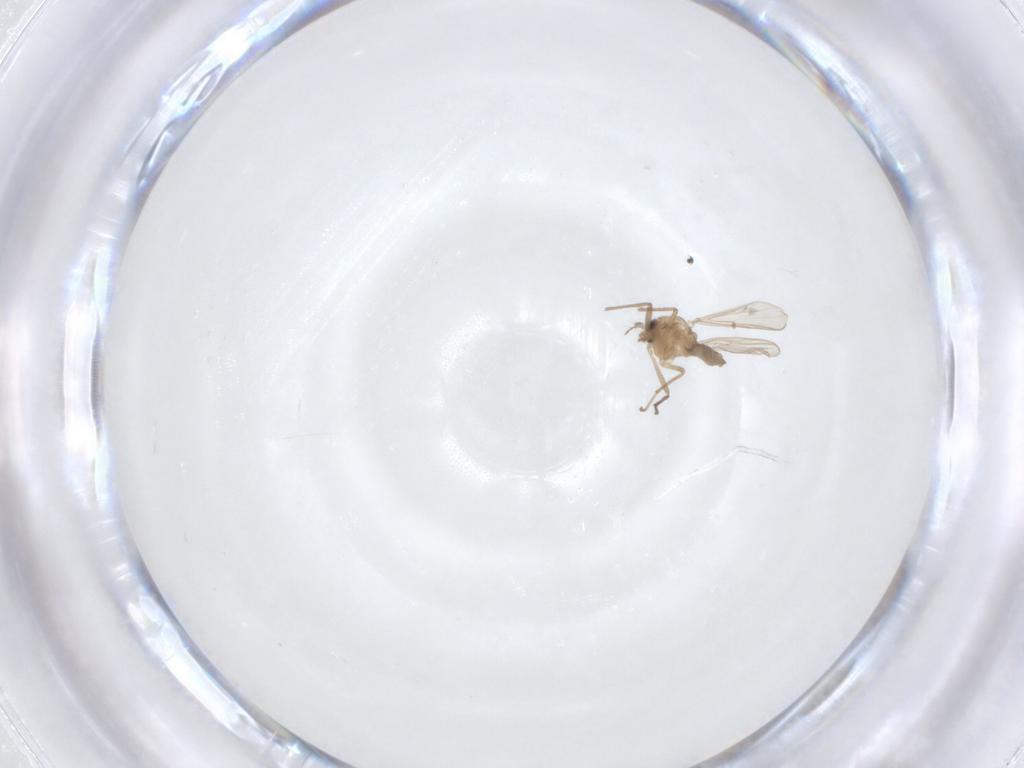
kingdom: Animalia
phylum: Arthropoda
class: Insecta
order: Diptera
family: Chironomidae
